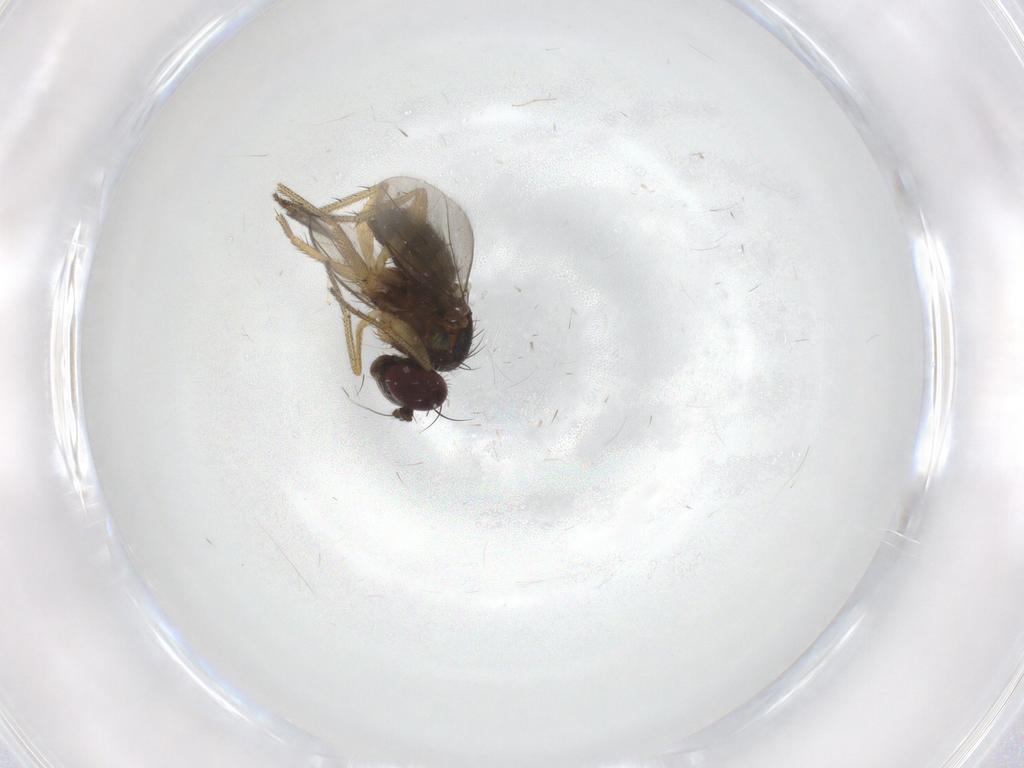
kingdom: Animalia
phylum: Arthropoda
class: Insecta
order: Diptera
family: Dolichopodidae
